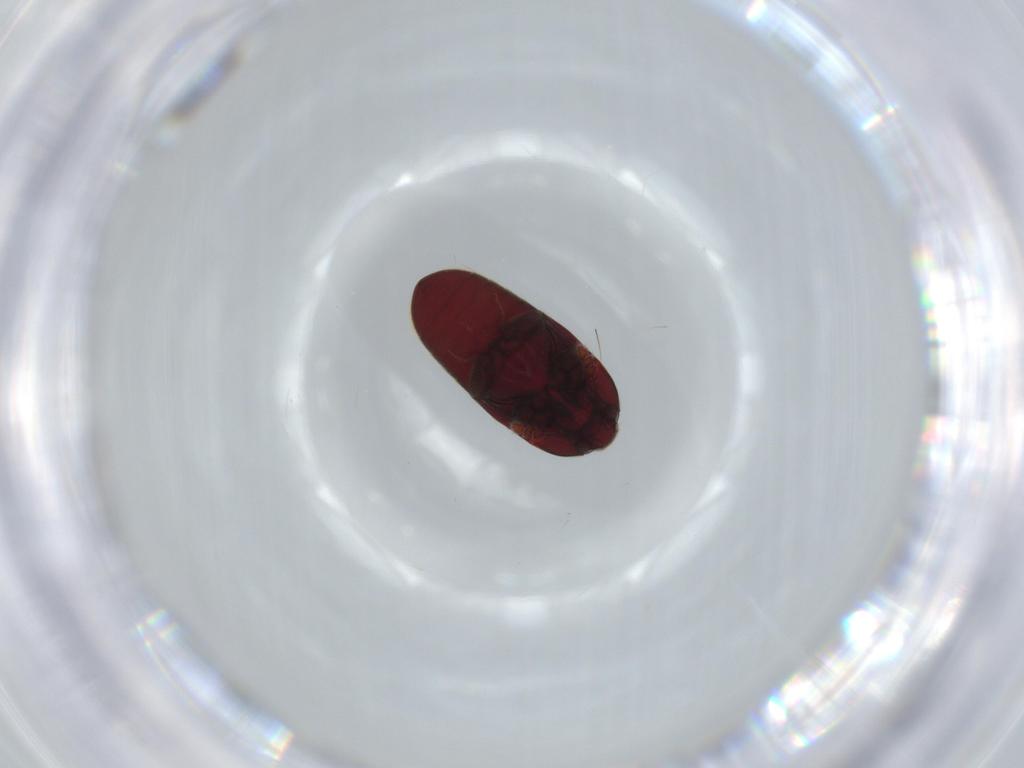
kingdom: Animalia
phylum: Arthropoda
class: Insecta
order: Coleoptera
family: Throscidae
